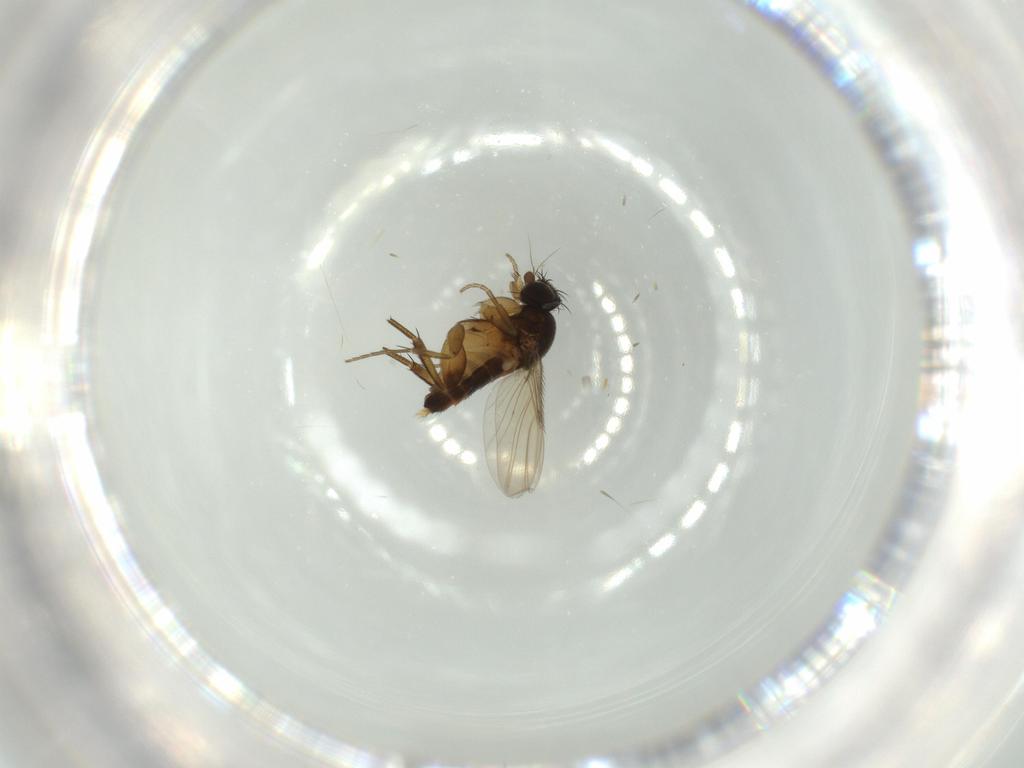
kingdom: Animalia
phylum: Arthropoda
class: Insecta
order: Diptera
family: Phoridae
